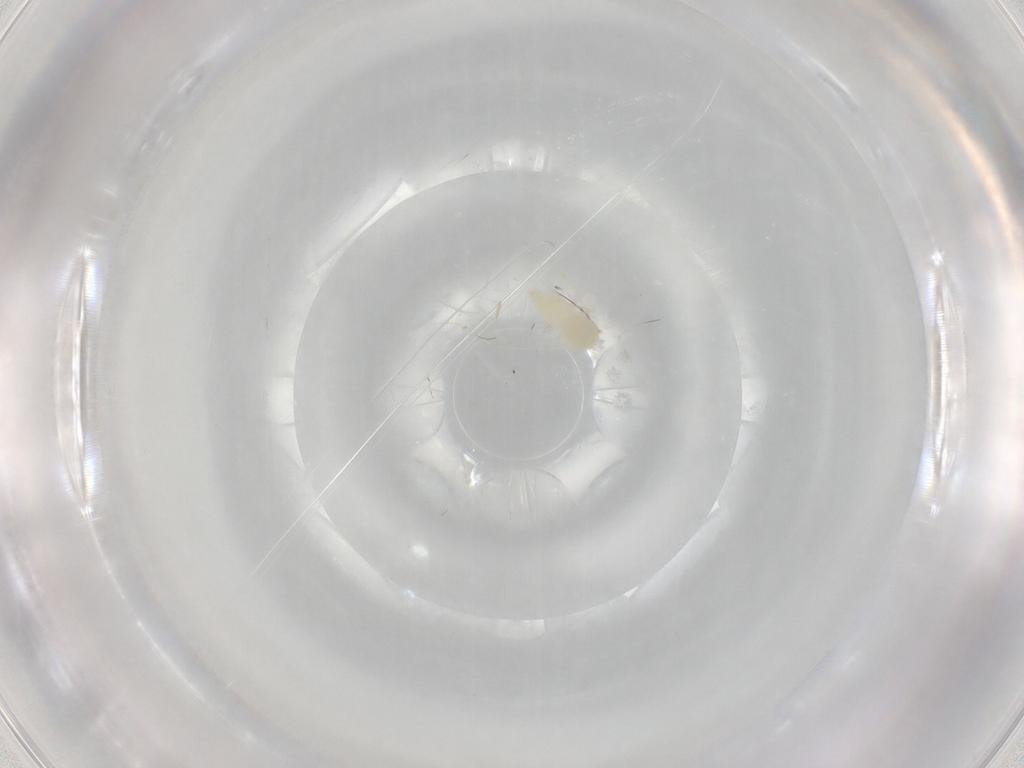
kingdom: Animalia
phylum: Arthropoda
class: Insecta
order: Hemiptera
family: Aleyrodidae
